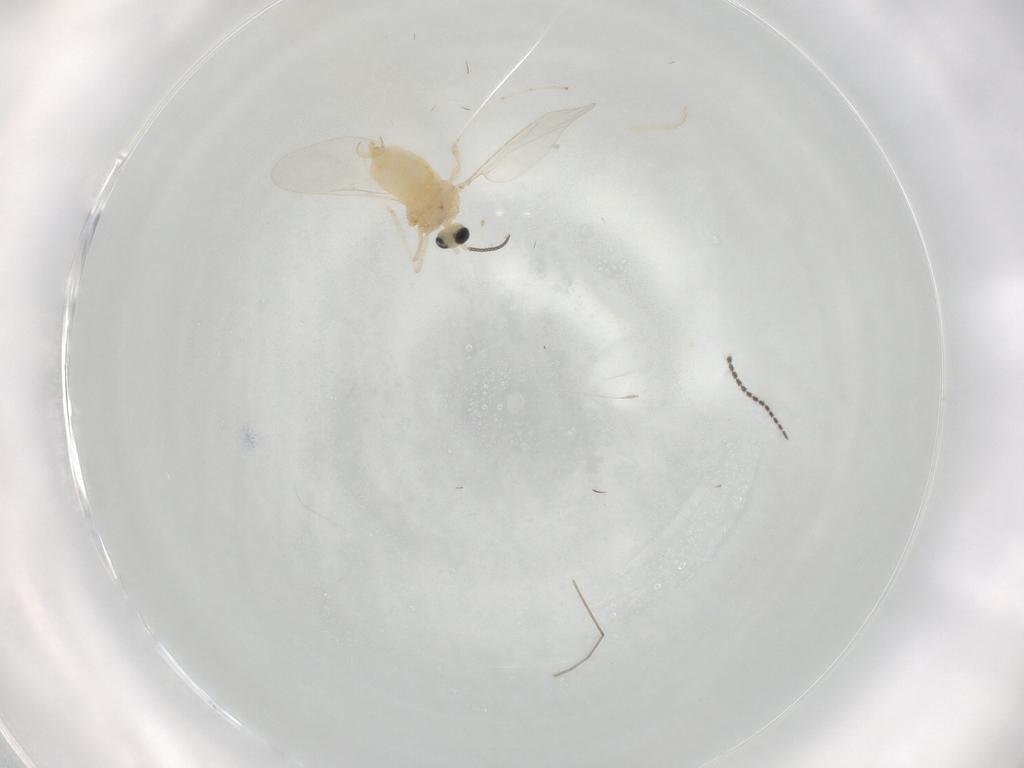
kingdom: Animalia
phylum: Arthropoda
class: Insecta
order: Diptera
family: Cecidomyiidae
